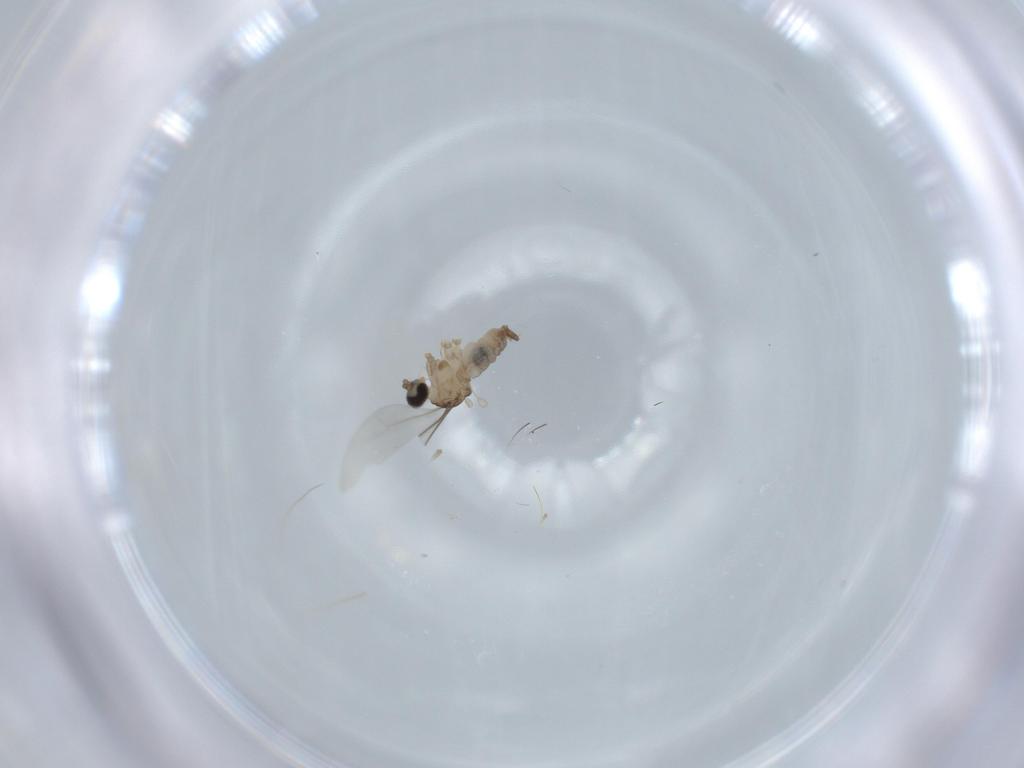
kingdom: Animalia
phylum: Arthropoda
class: Insecta
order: Diptera
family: Cecidomyiidae
